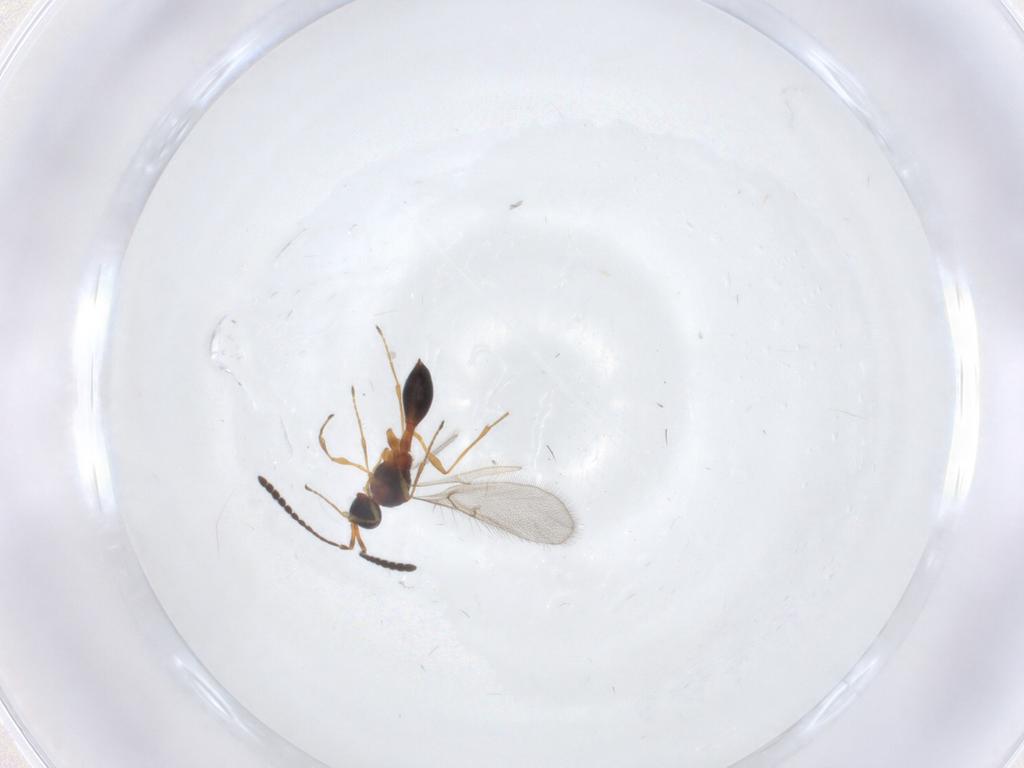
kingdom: Animalia
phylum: Arthropoda
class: Insecta
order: Hymenoptera
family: Diapriidae
